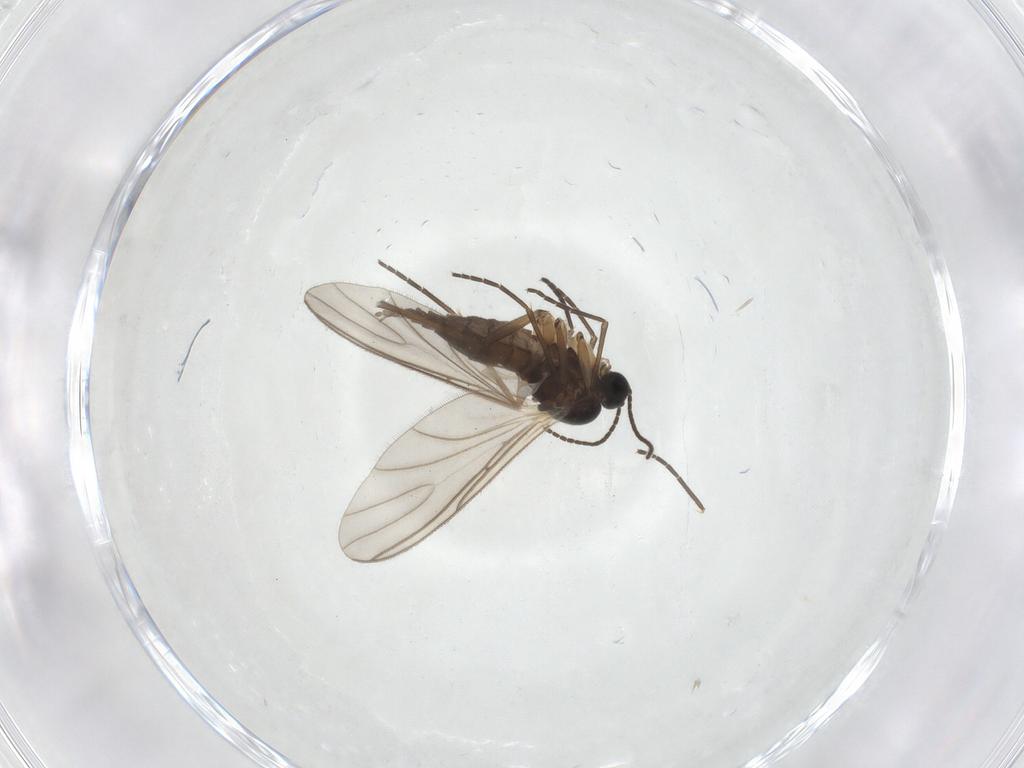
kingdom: Animalia
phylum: Arthropoda
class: Insecta
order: Diptera
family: Sciaridae
